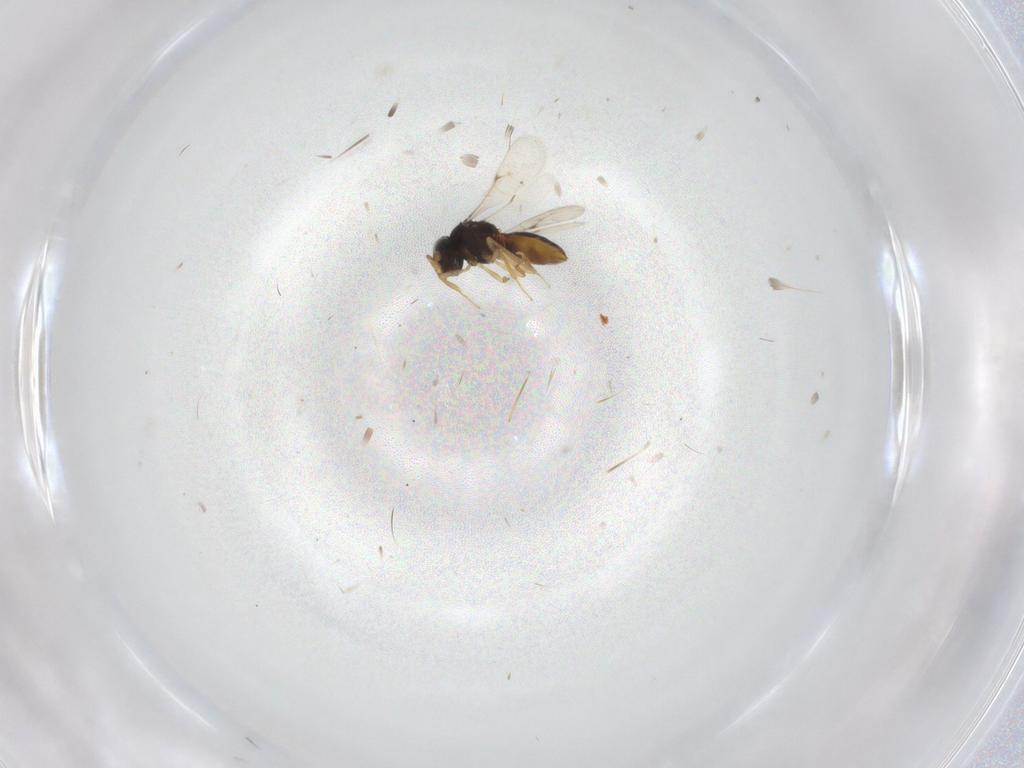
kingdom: Animalia
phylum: Arthropoda
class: Insecta
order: Hymenoptera
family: Scelionidae
